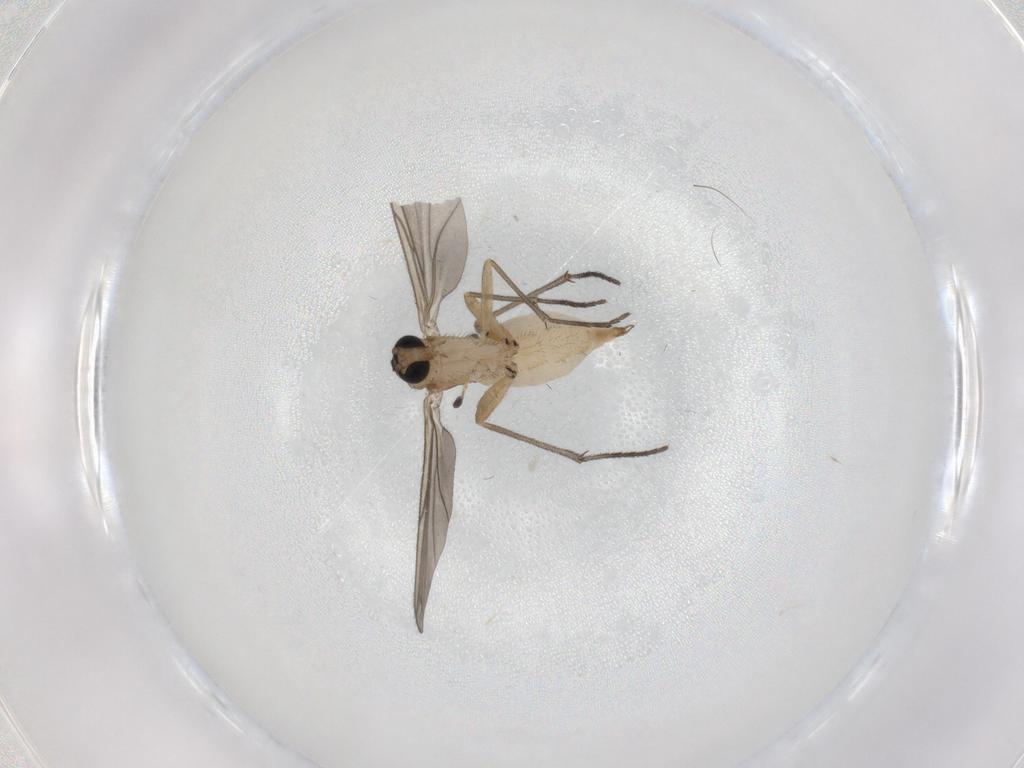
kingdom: Animalia
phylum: Arthropoda
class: Insecta
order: Diptera
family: Sciaridae
